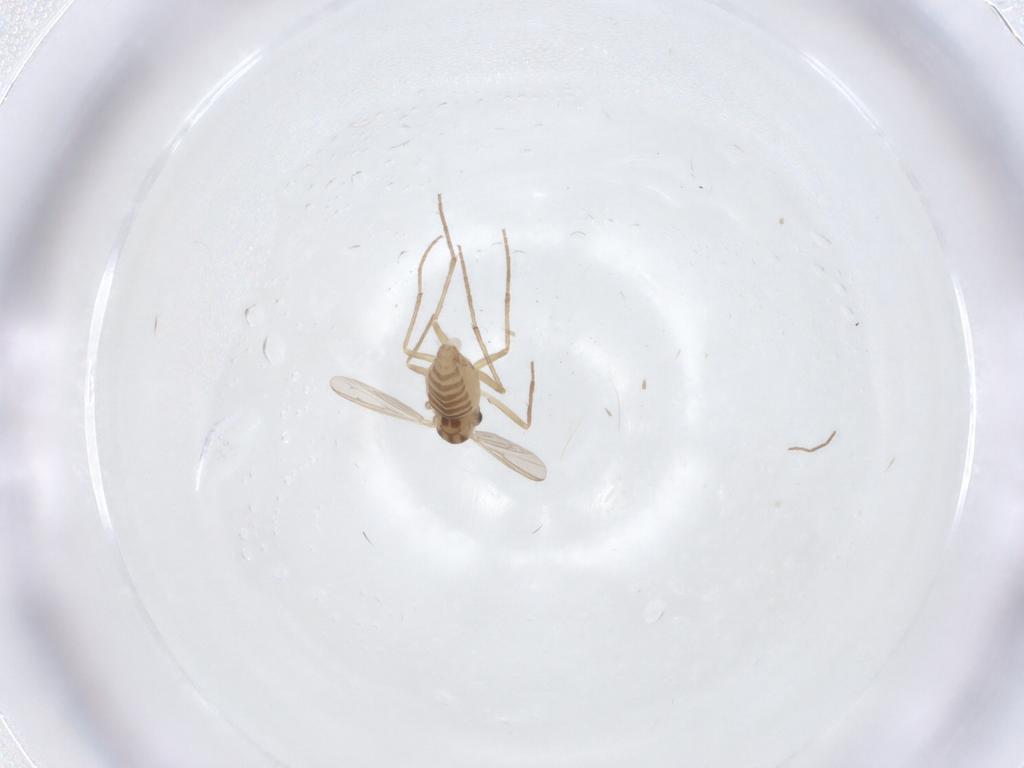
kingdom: Animalia
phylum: Arthropoda
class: Insecta
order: Diptera
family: Chironomidae
